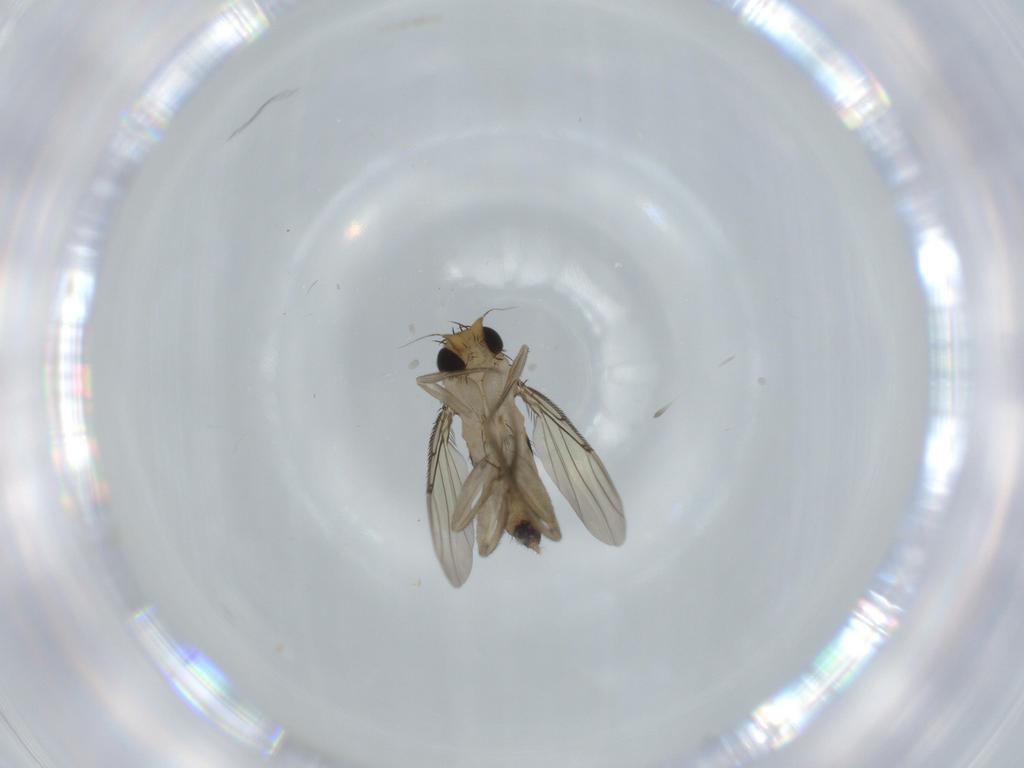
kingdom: Animalia
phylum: Arthropoda
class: Insecta
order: Diptera
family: Phoridae
